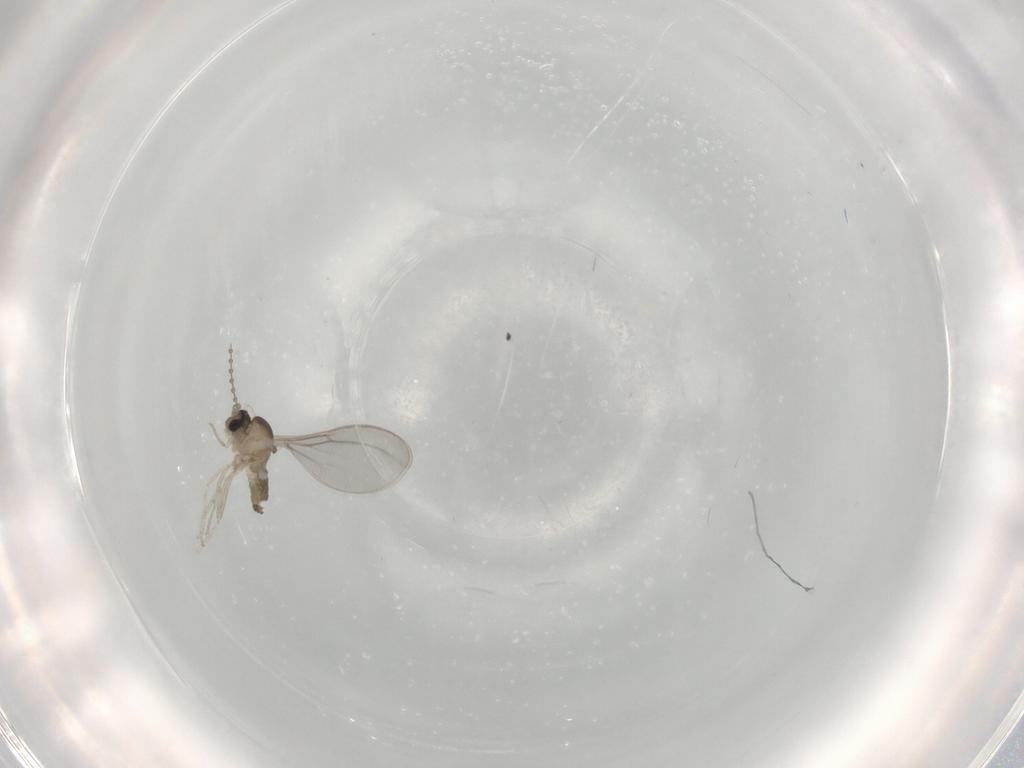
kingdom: Animalia
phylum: Arthropoda
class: Insecta
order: Diptera
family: Cecidomyiidae
